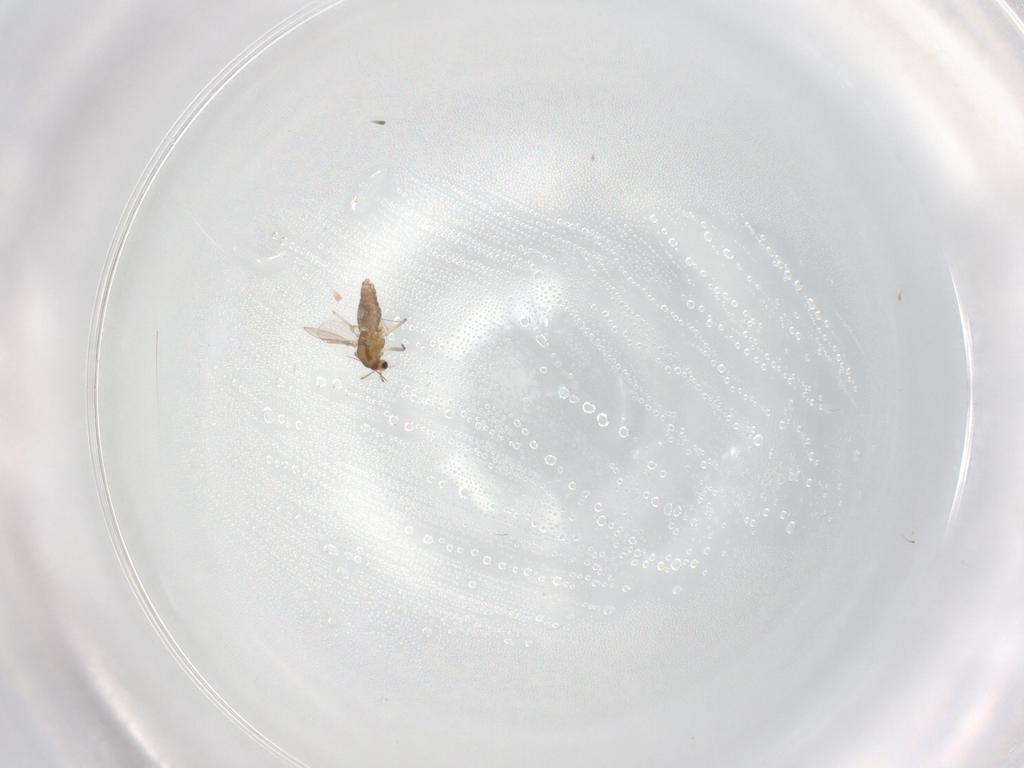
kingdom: Animalia
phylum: Arthropoda
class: Insecta
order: Diptera
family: Chironomidae
